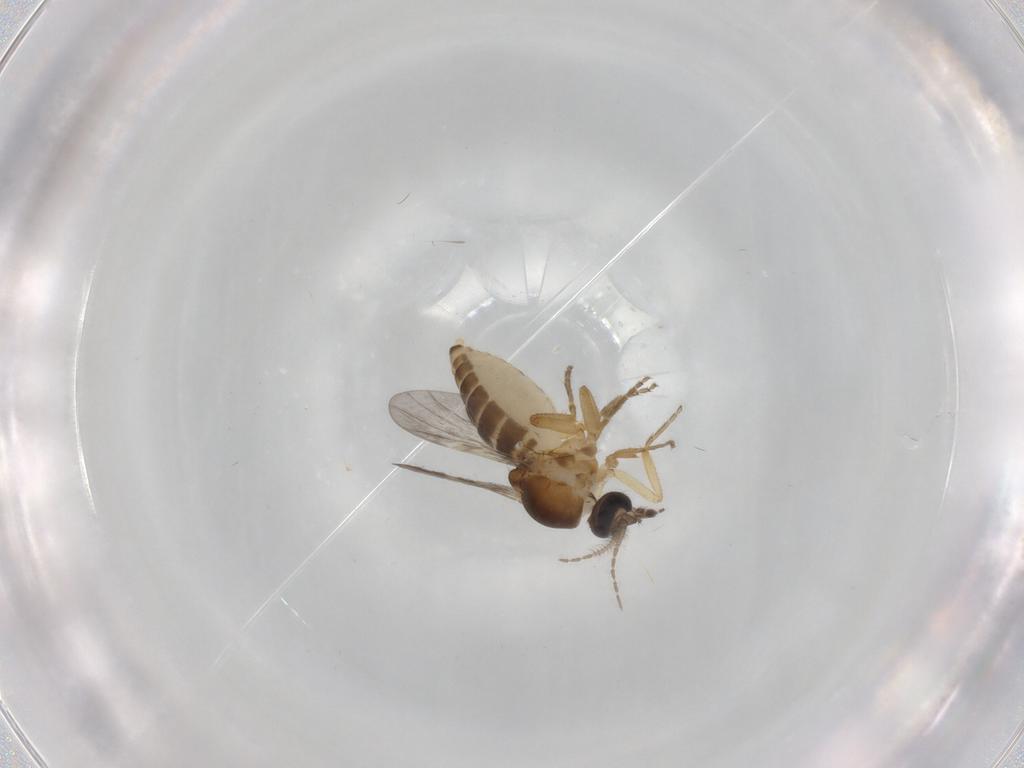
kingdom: Animalia
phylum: Arthropoda
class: Insecta
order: Diptera
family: Ceratopogonidae
